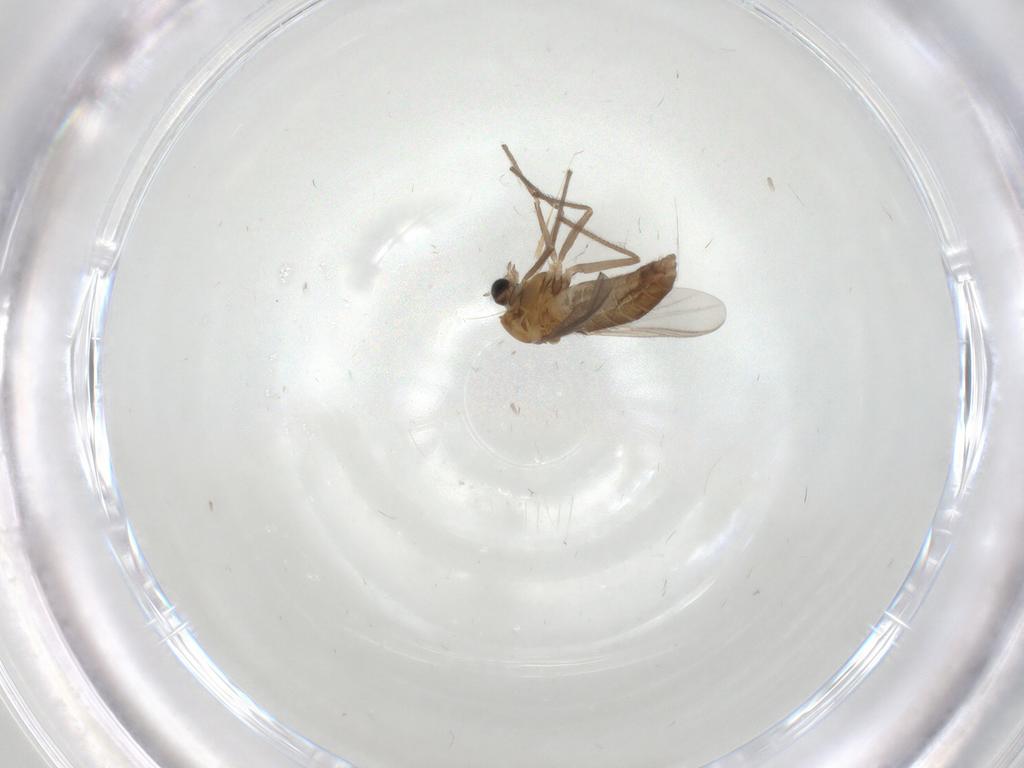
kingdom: Animalia
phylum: Arthropoda
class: Insecta
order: Diptera
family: Chironomidae
